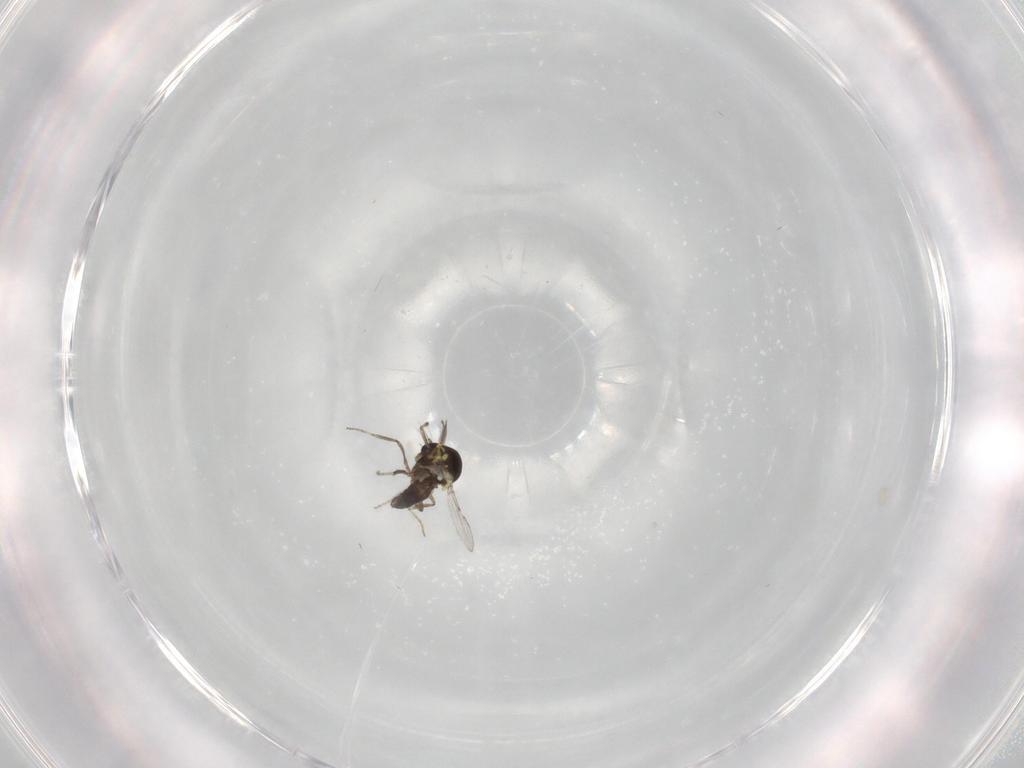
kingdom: Animalia
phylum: Arthropoda
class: Insecta
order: Diptera
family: Ceratopogonidae
